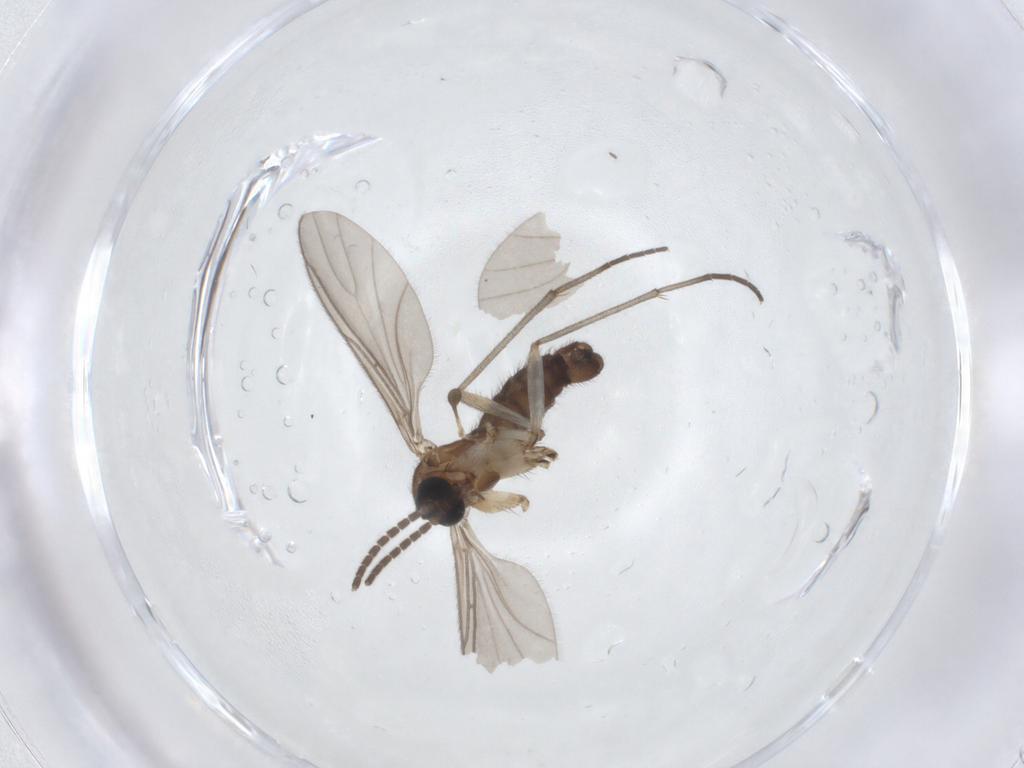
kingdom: Animalia
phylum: Arthropoda
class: Insecta
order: Diptera
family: Sciaridae
